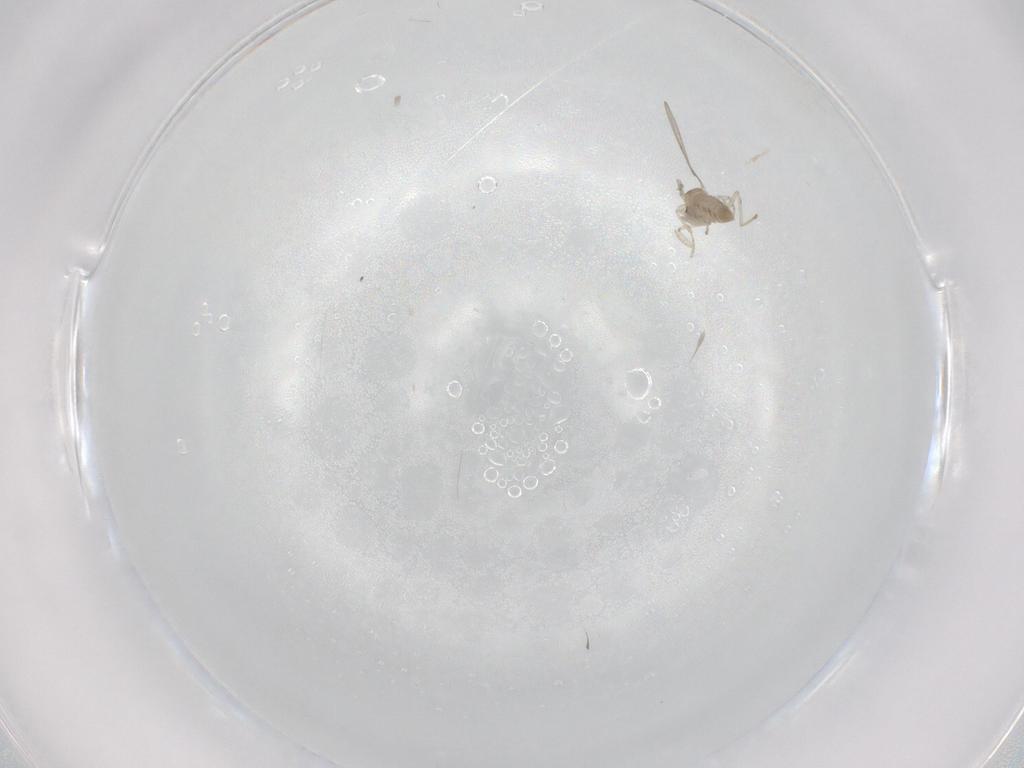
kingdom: Animalia
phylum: Arthropoda
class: Insecta
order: Diptera
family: Cecidomyiidae
